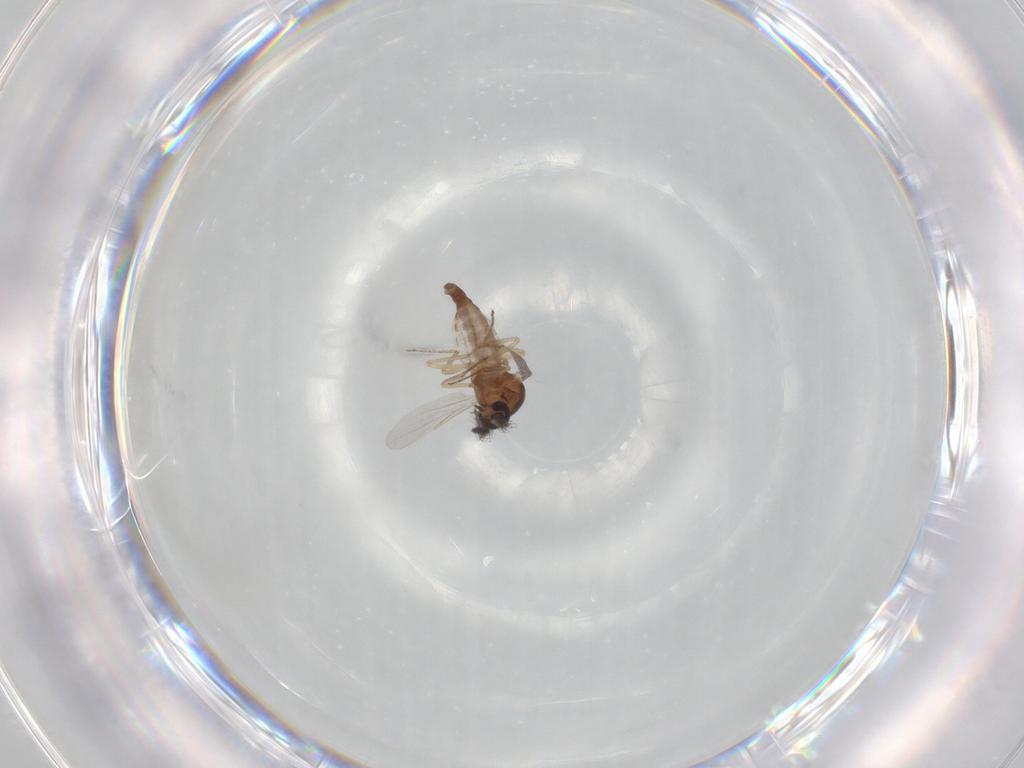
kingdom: Animalia
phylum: Arthropoda
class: Insecta
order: Diptera
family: Ceratopogonidae
